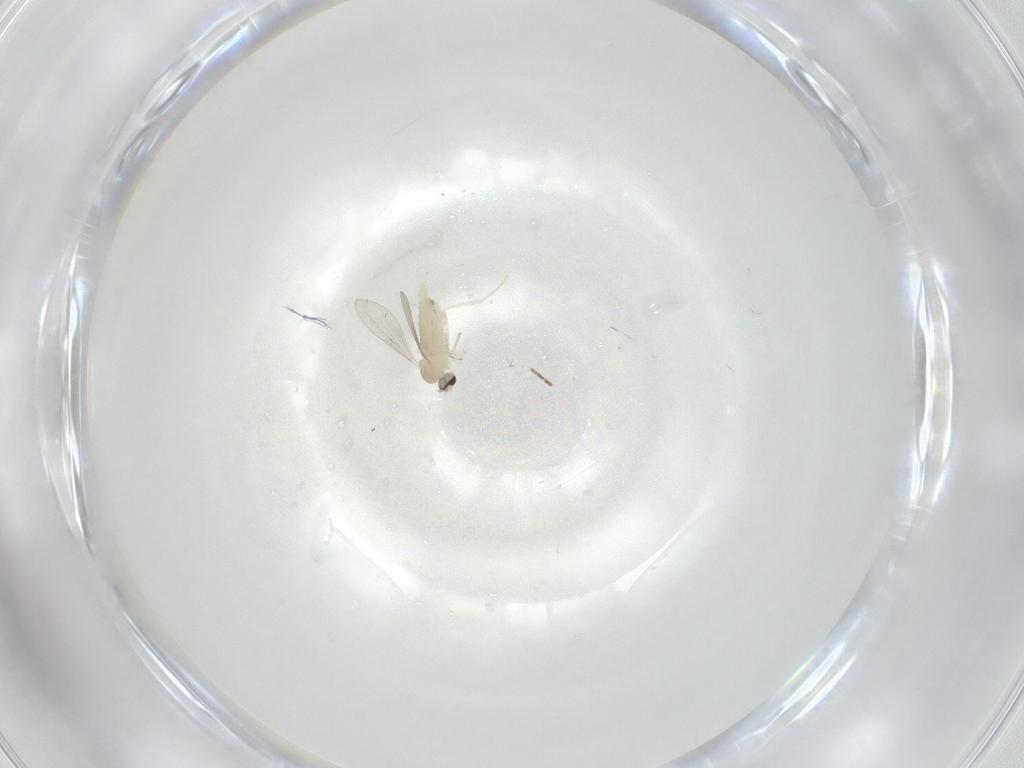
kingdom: Animalia
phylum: Arthropoda
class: Insecta
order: Diptera
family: Cecidomyiidae
